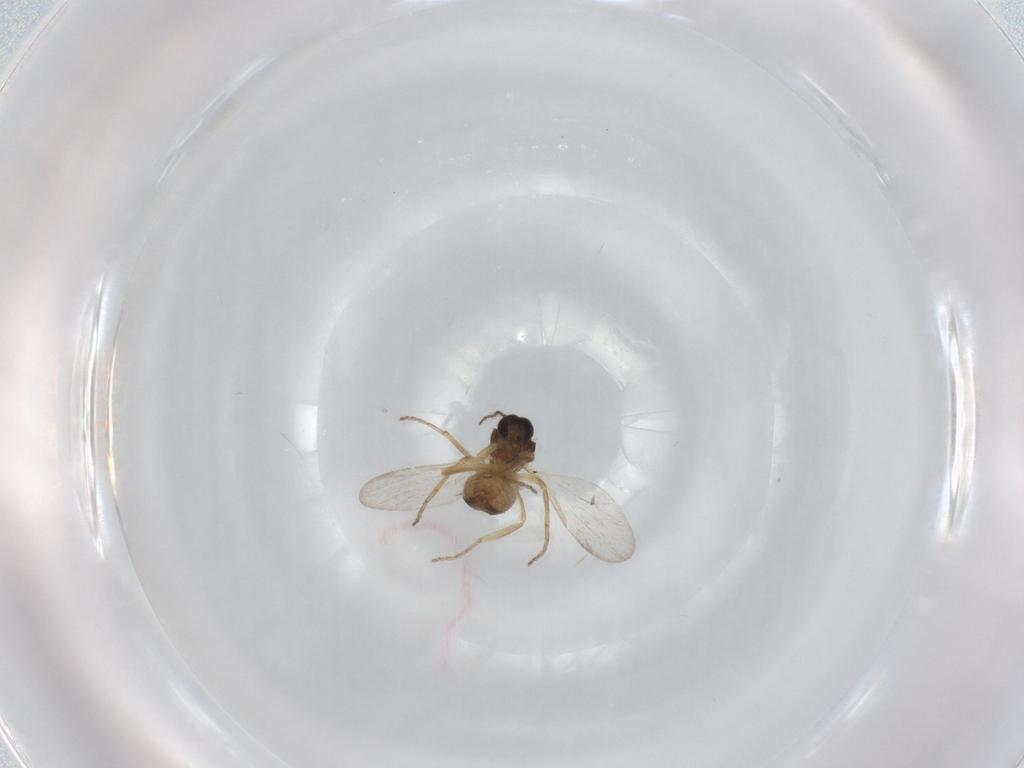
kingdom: Animalia
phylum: Arthropoda
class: Insecta
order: Diptera
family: Ceratopogonidae
